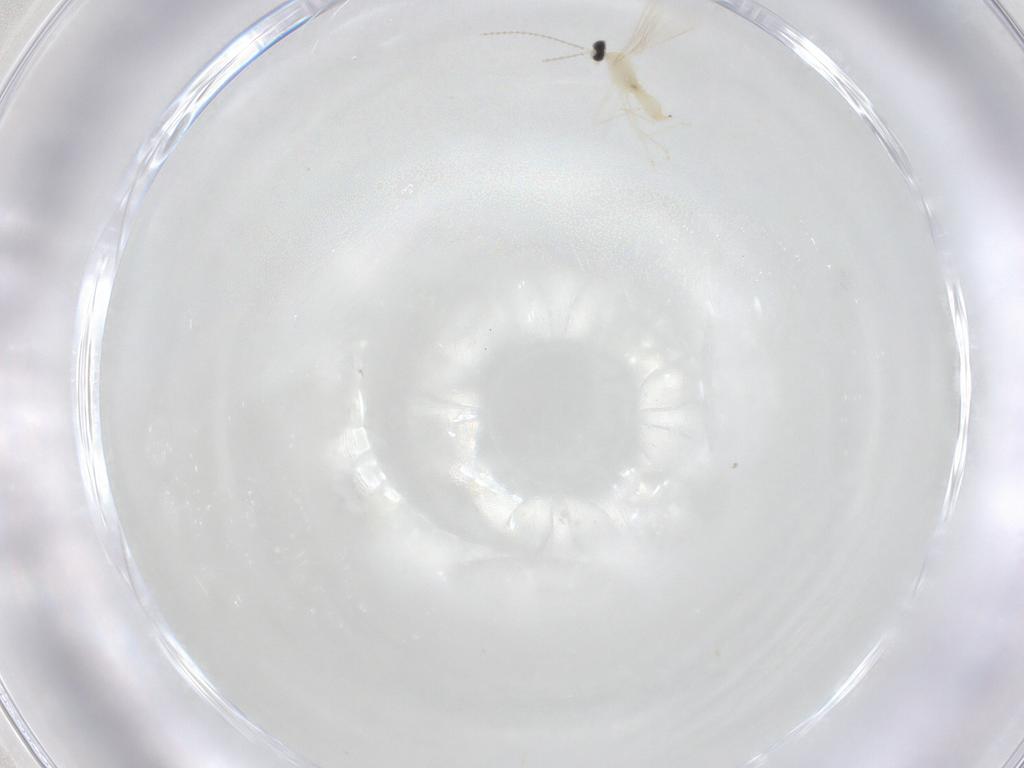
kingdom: Animalia
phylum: Arthropoda
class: Insecta
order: Diptera
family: Cecidomyiidae
